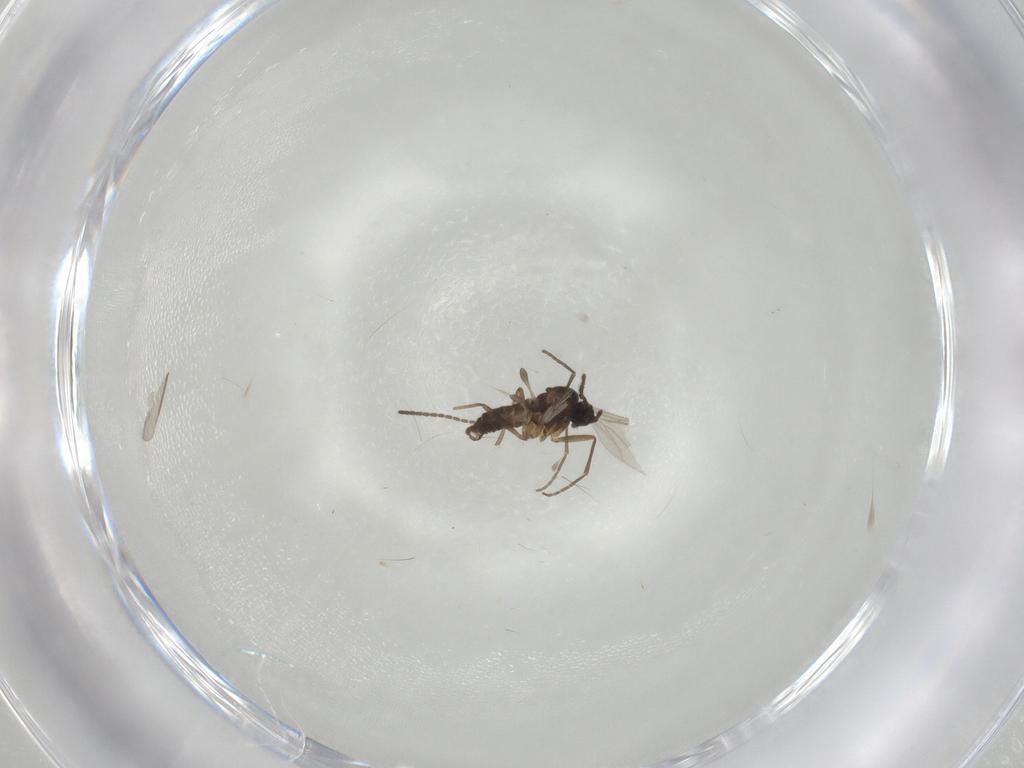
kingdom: Animalia
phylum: Arthropoda
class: Insecta
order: Diptera
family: Sciaridae
